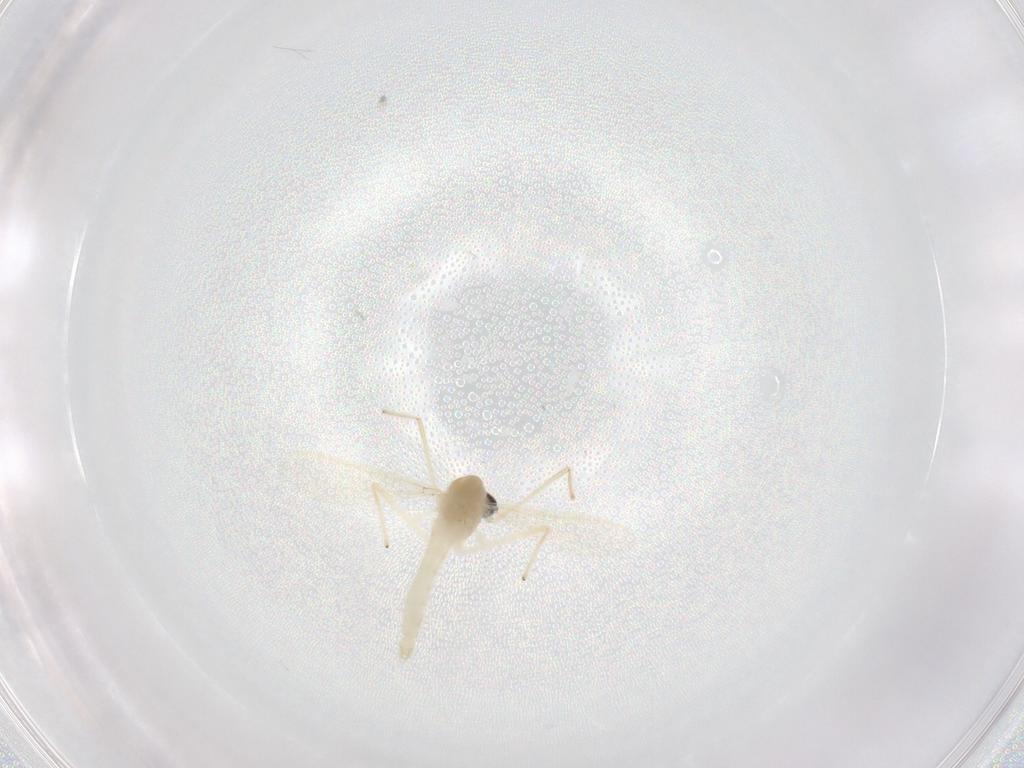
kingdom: Animalia
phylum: Arthropoda
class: Insecta
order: Diptera
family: Chironomidae
